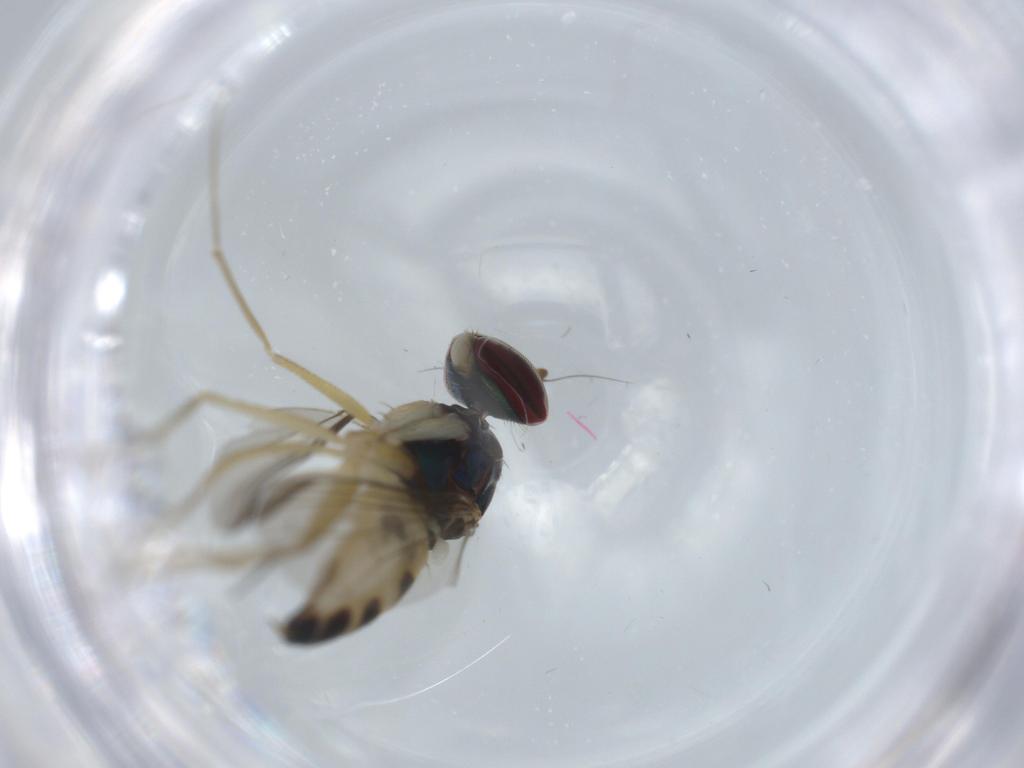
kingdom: Animalia
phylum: Arthropoda
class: Insecta
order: Diptera
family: Dolichopodidae
